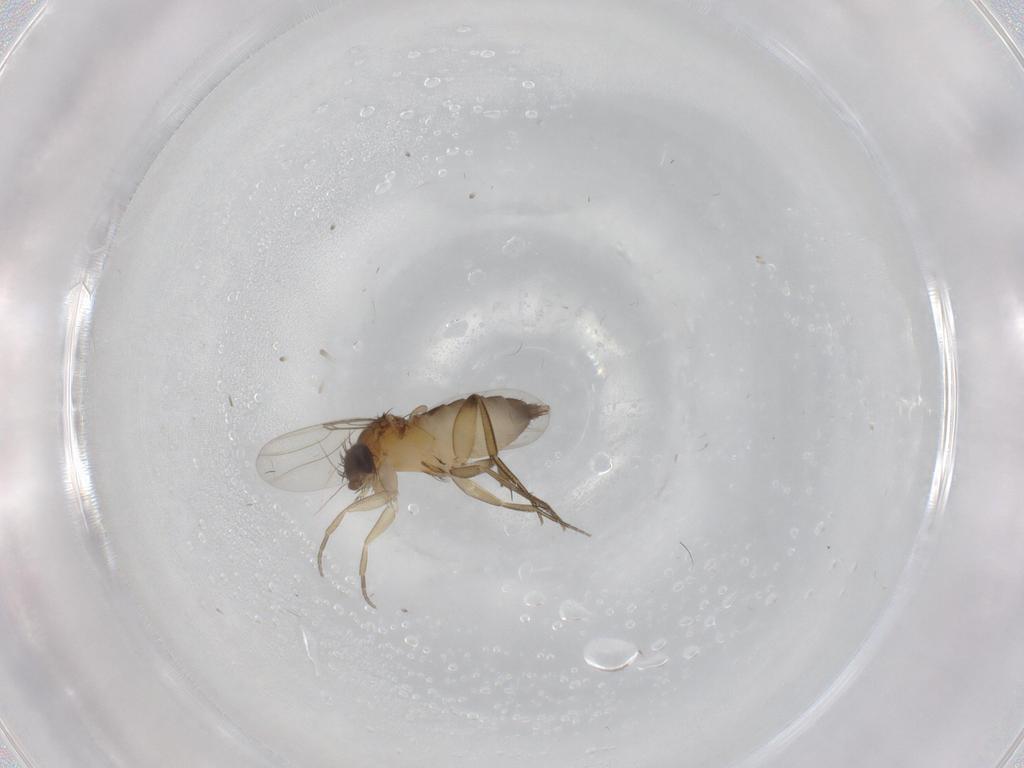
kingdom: Animalia
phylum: Arthropoda
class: Insecta
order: Diptera
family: Phoridae
